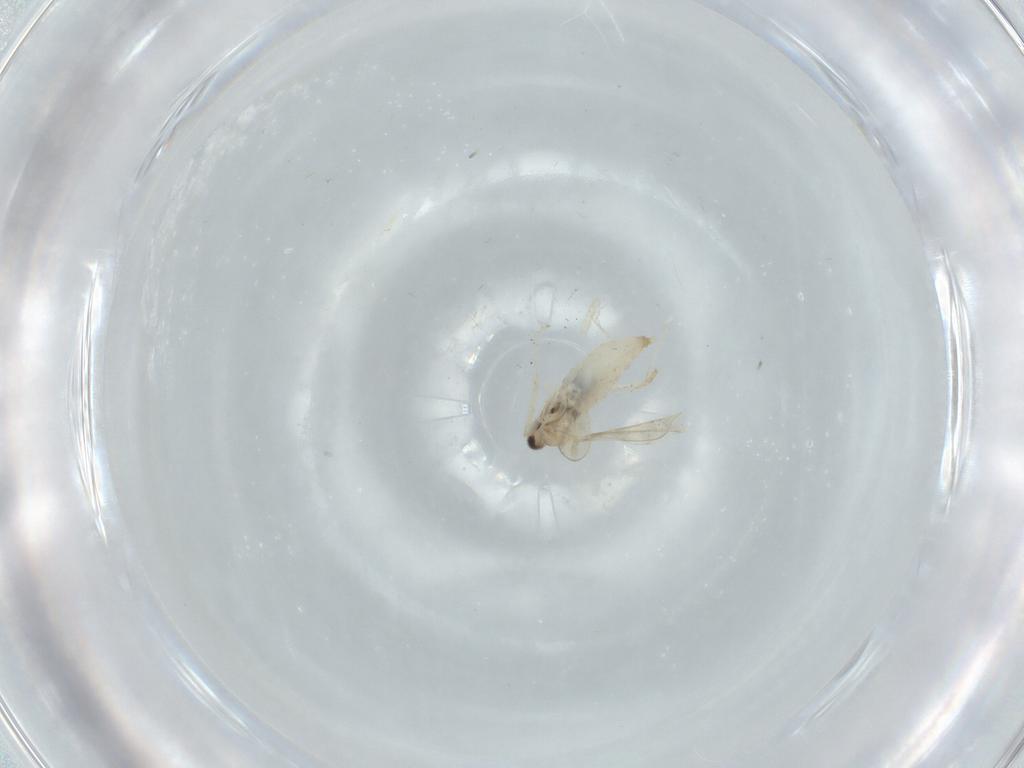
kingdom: Animalia
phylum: Arthropoda
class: Insecta
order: Diptera
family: Cecidomyiidae
